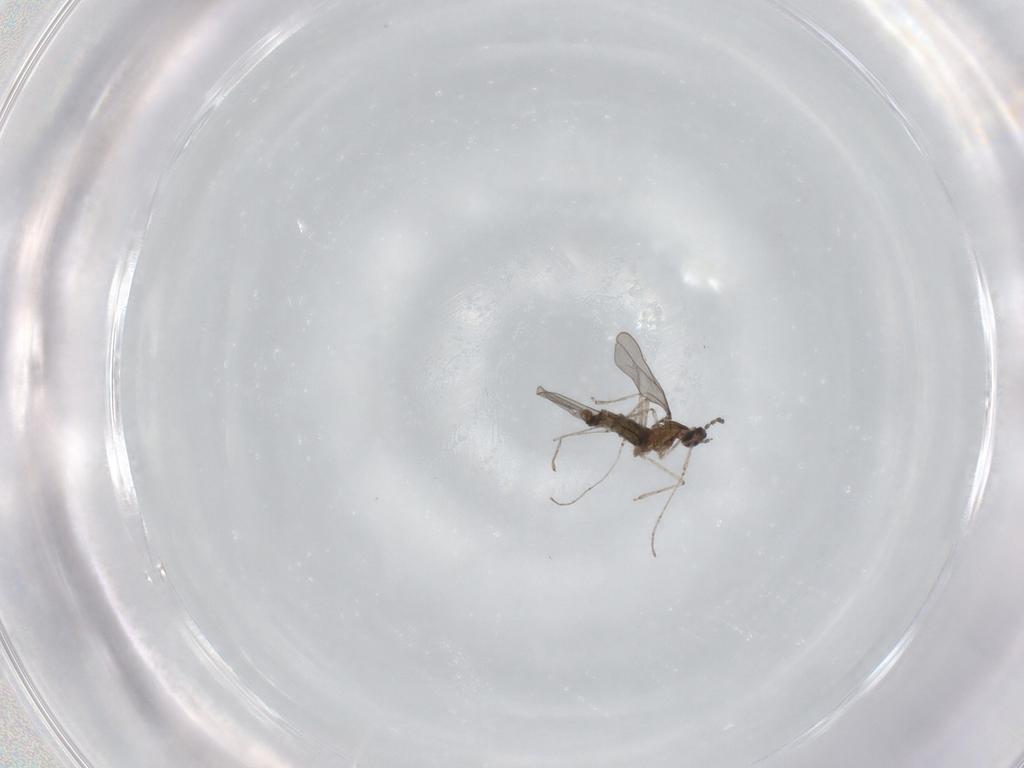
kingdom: Animalia
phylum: Arthropoda
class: Insecta
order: Diptera
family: Cecidomyiidae
